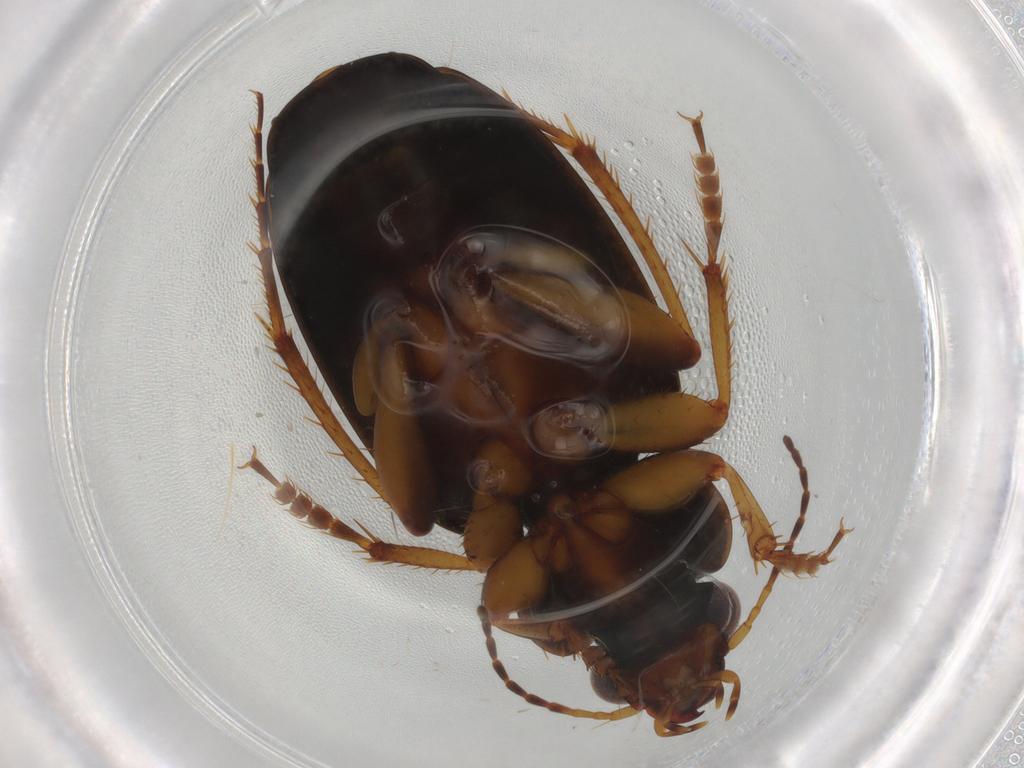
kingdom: Animalia
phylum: Arthropoda
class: Insecta
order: Coleoptera
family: Carabidae
